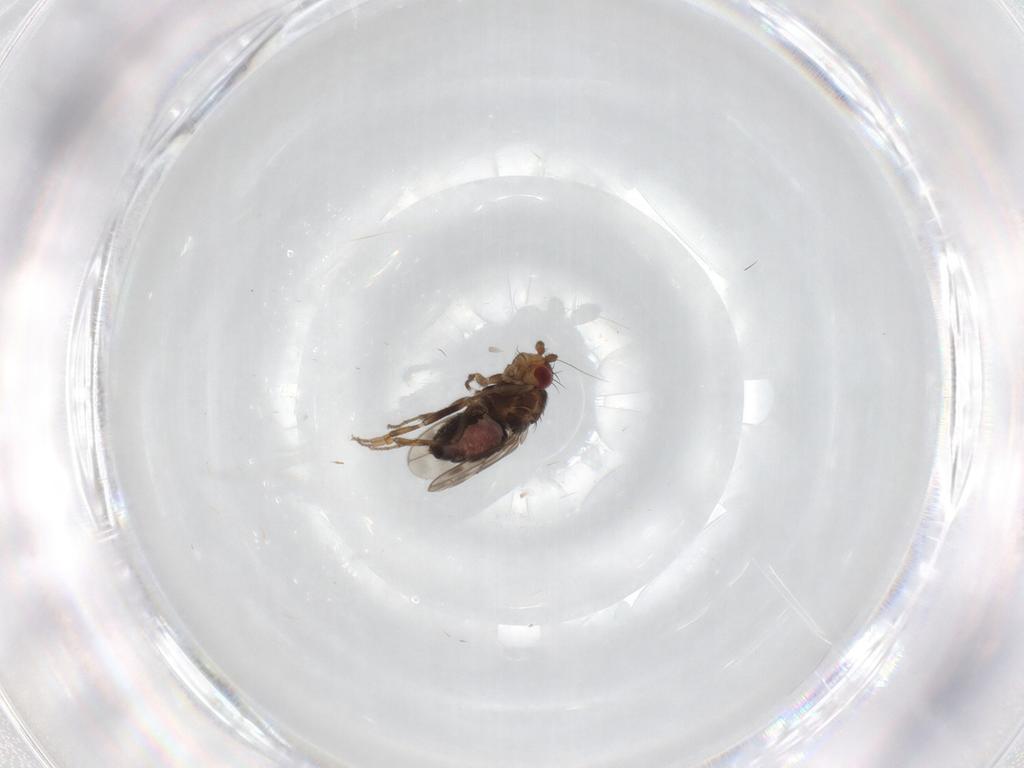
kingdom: Animalia
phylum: Arthropoda
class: Insecta
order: Diptera
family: Sphaeroceridae
